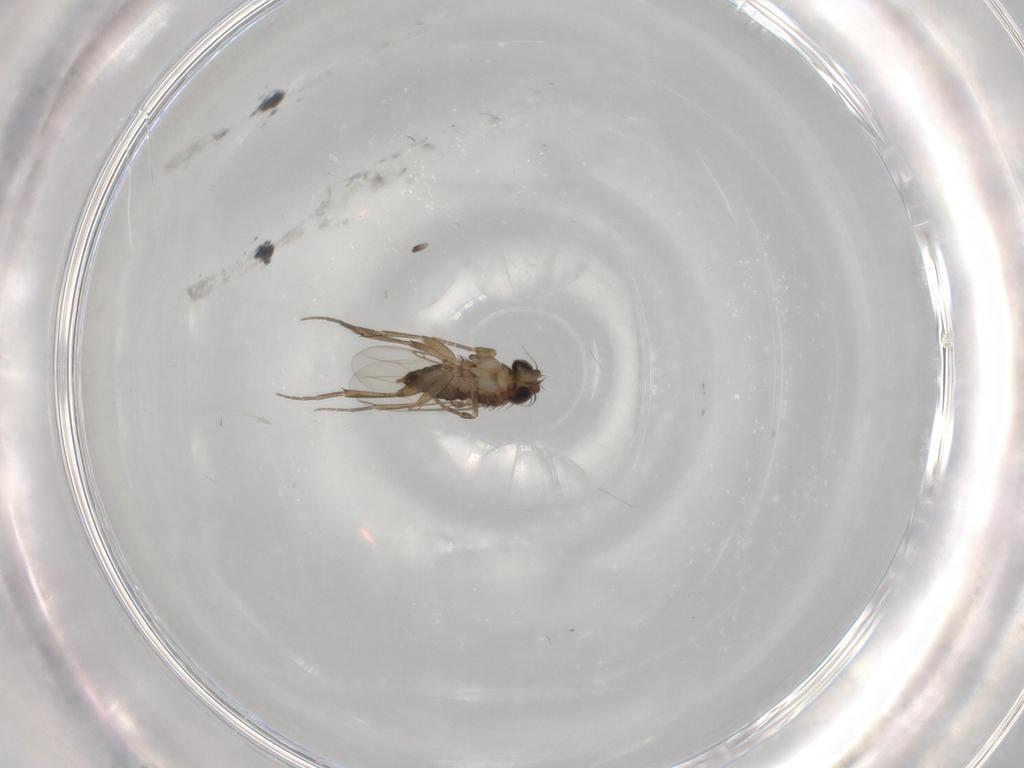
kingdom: Animalia
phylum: Arthropoda
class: Insecta
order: Diptera
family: Phoridae
